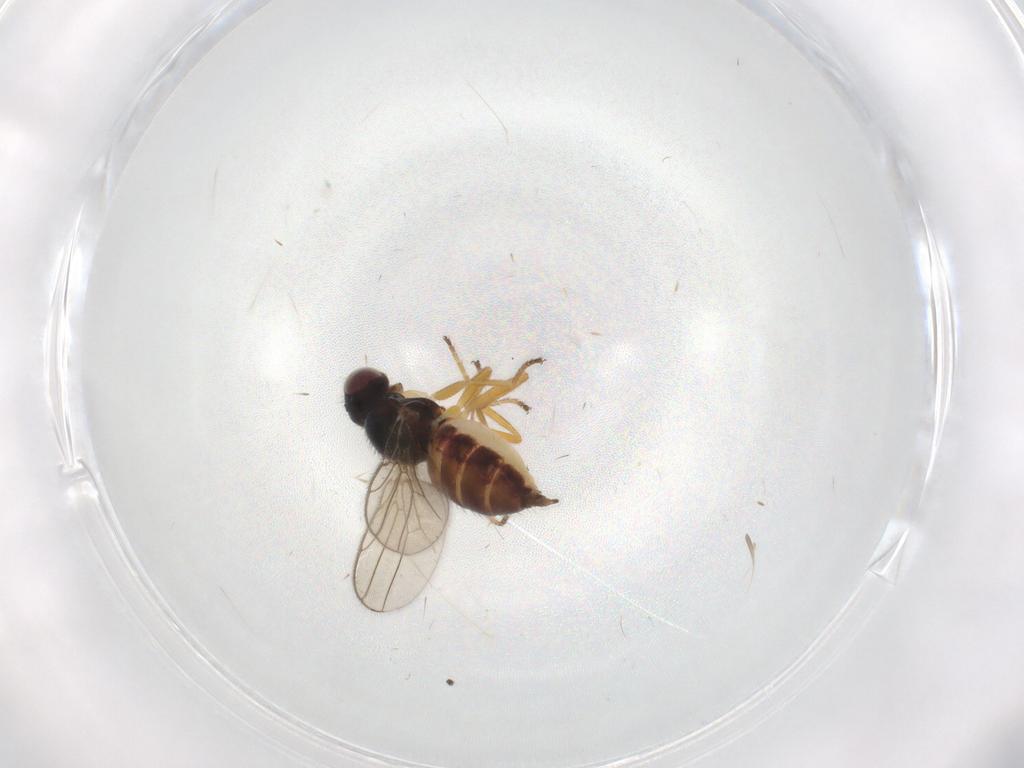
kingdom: Animalia
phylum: Arthropoda
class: Insecta
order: Diptera
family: Chloropidae
